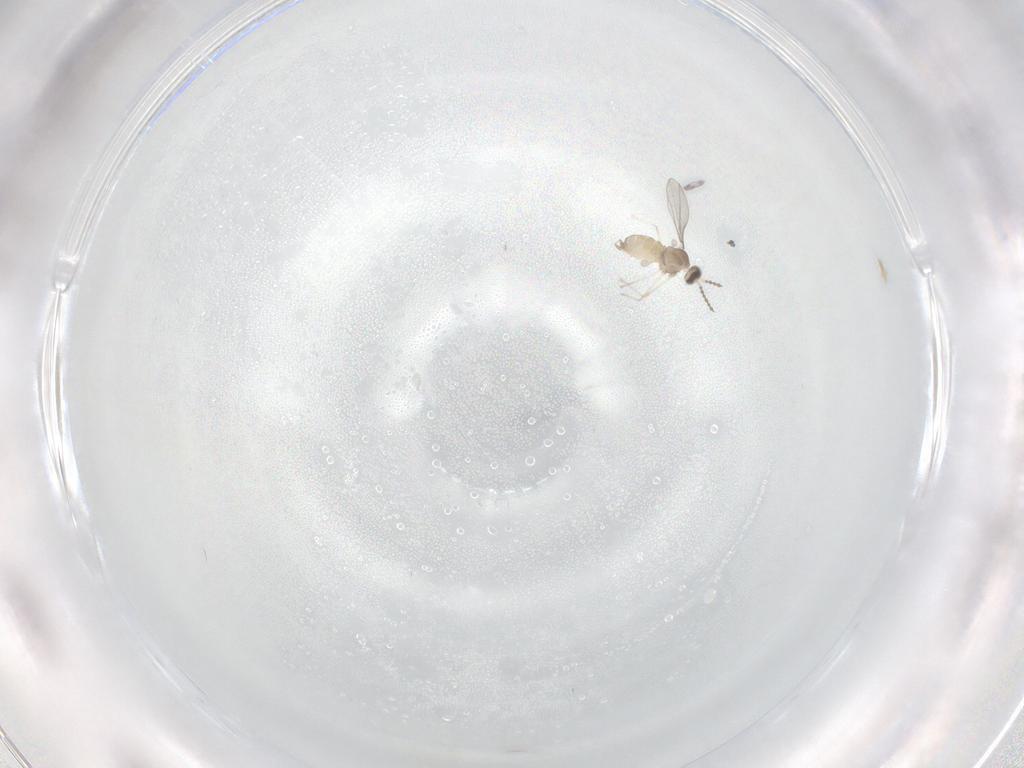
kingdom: Animalia
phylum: Arthropoda
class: Insecta
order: Diptera
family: Cecidomyiidae
